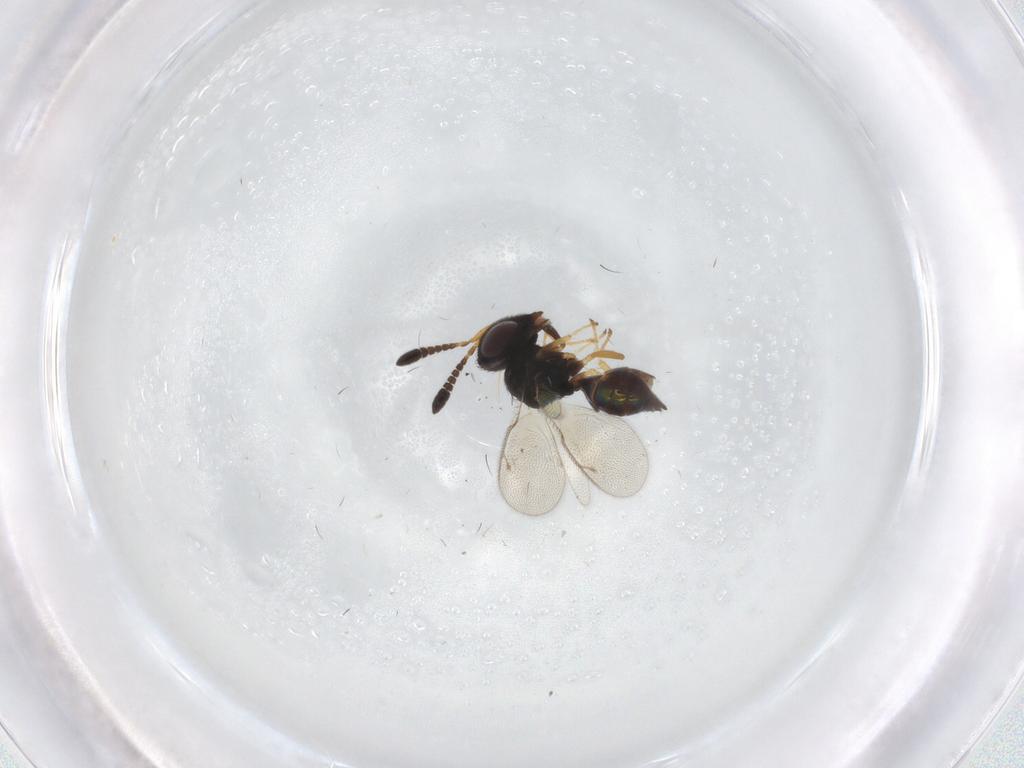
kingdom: Animalia
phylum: Arthropoda
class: Insecta
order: Hymenoptera
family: Pteromalidae
